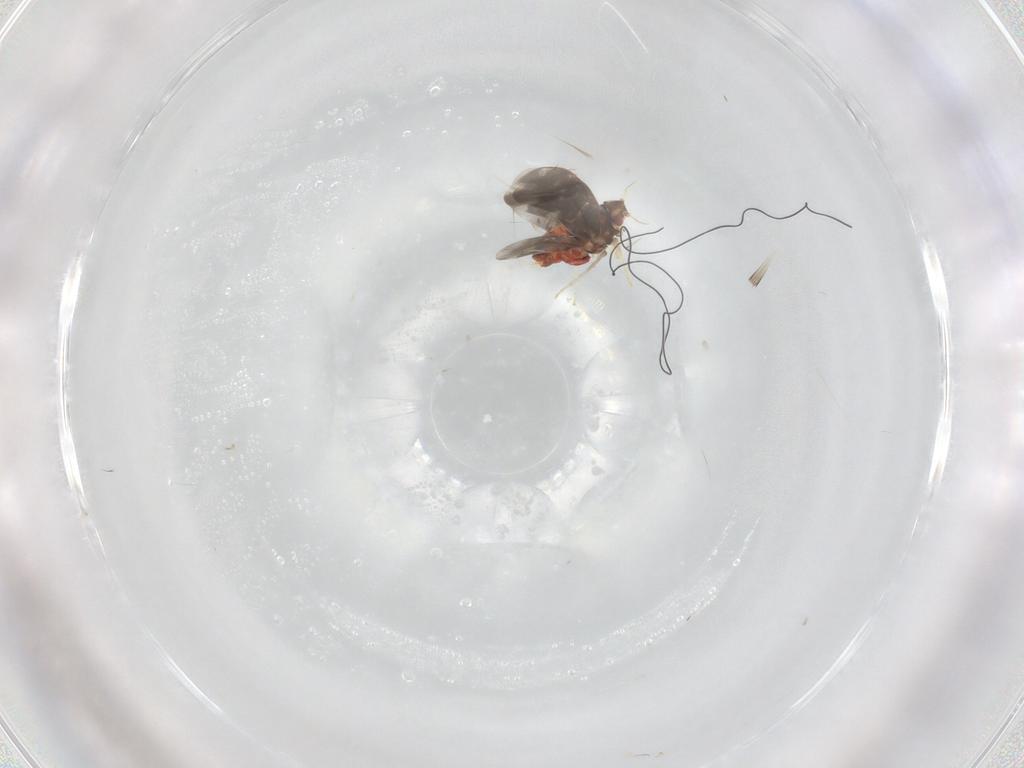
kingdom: Animalia
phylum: Arthropoda
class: Insecta
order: Hemiptera
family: Aleyrodidae
